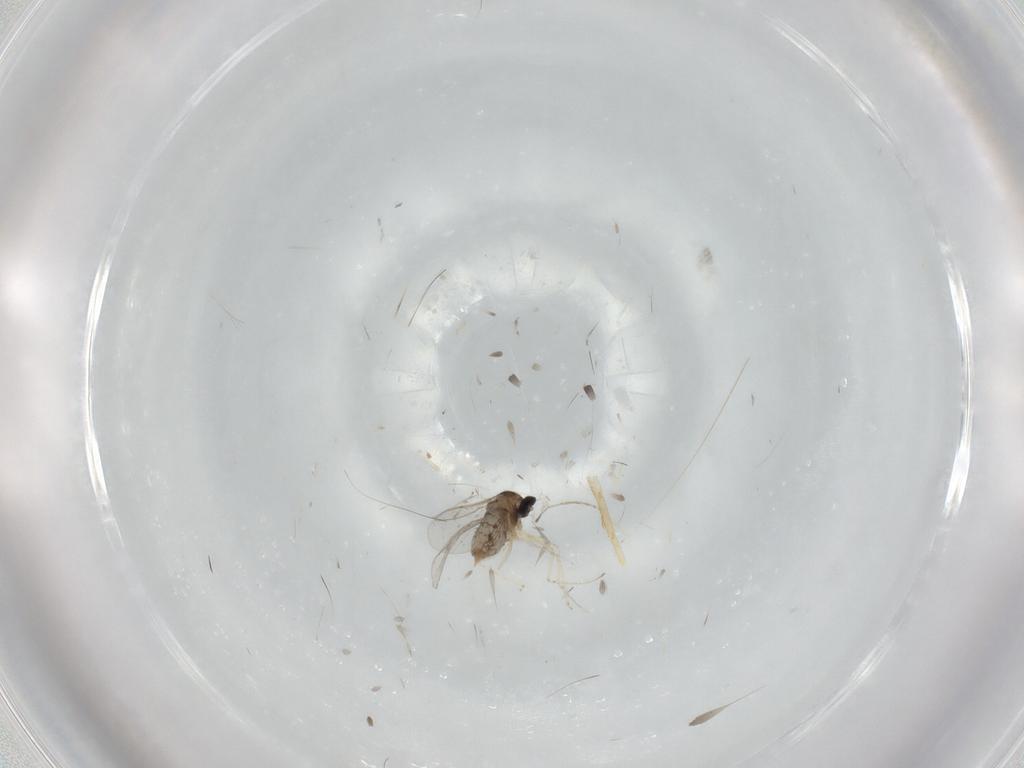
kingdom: Animalia
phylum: Arthropoda
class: Insecta
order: Diptera
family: Cecidomyiidae
